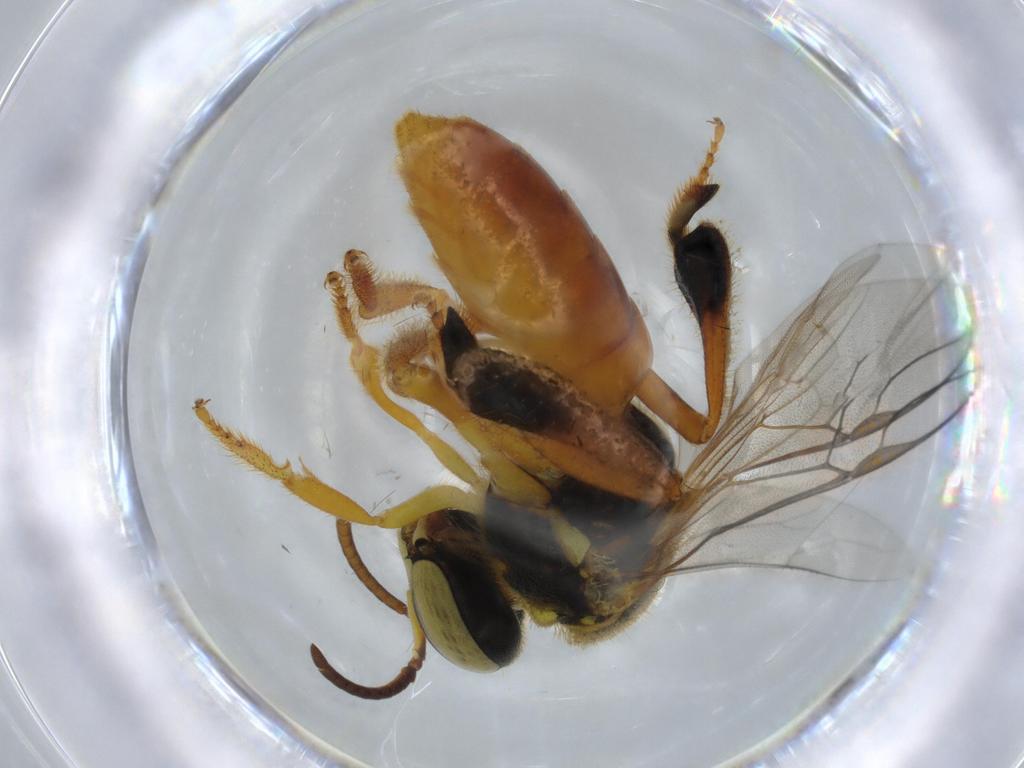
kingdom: Animalia
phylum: Arthropoda
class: Insecta
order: Hymenoptera
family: Apidae
